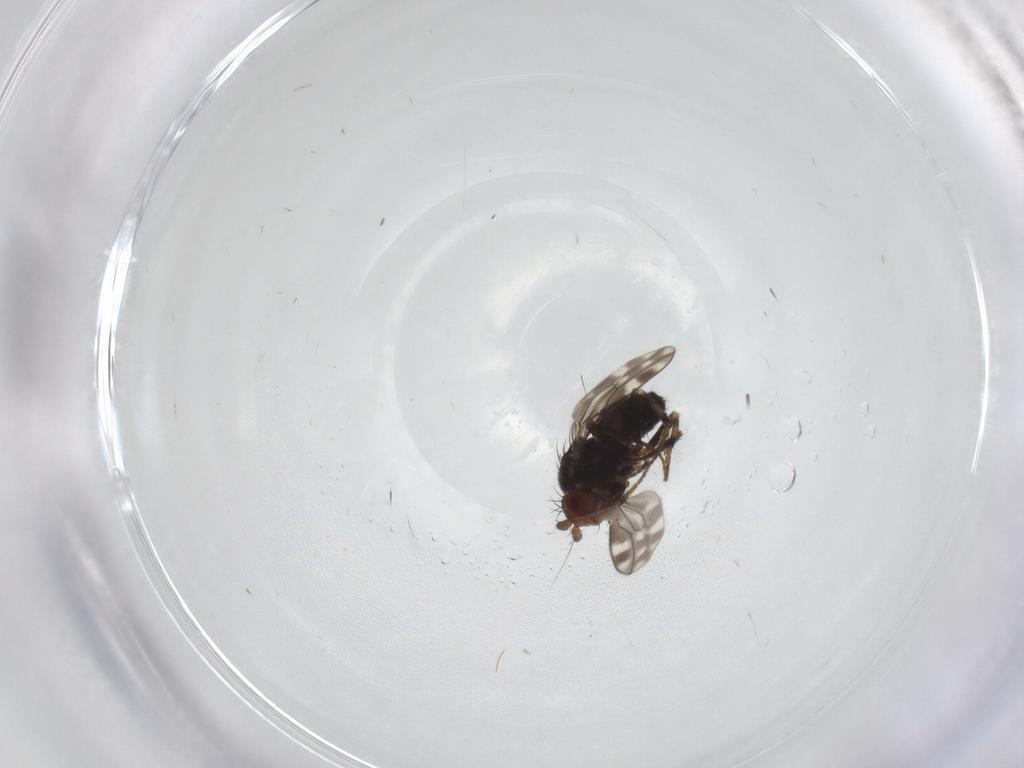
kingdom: Animalia
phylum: Arthropoda
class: Insecta
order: Diptera
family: Sphaeroceridae
